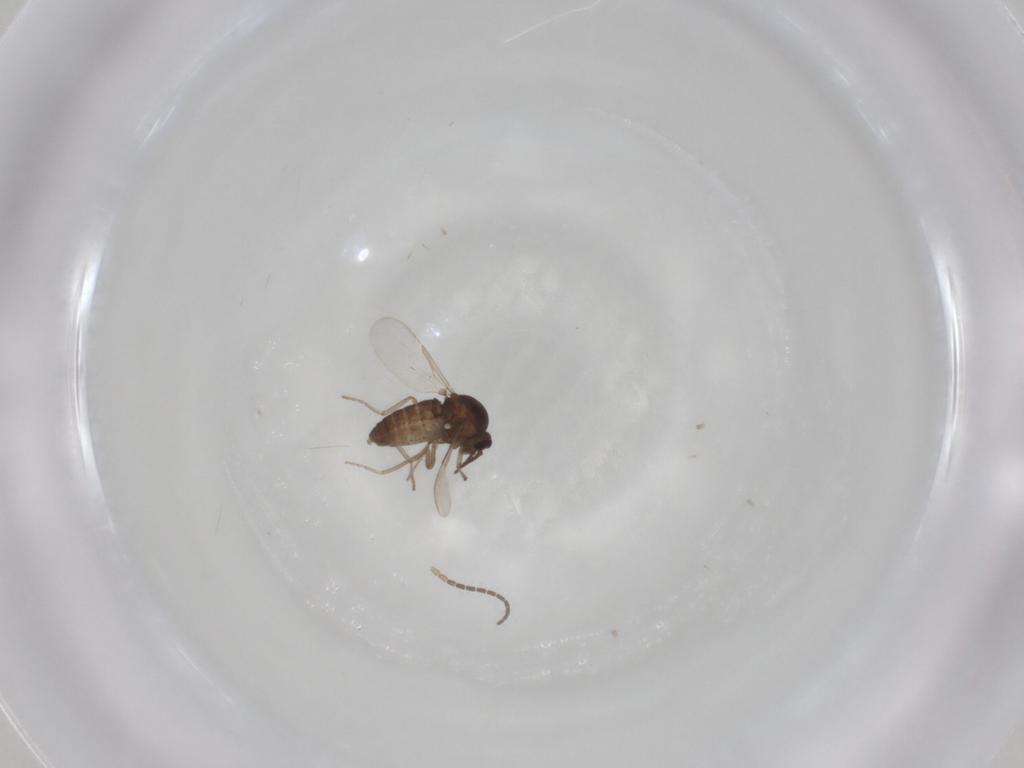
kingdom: Animalia
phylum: Arthropoda
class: Insecta
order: Diptera
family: Ceratopogonidae
